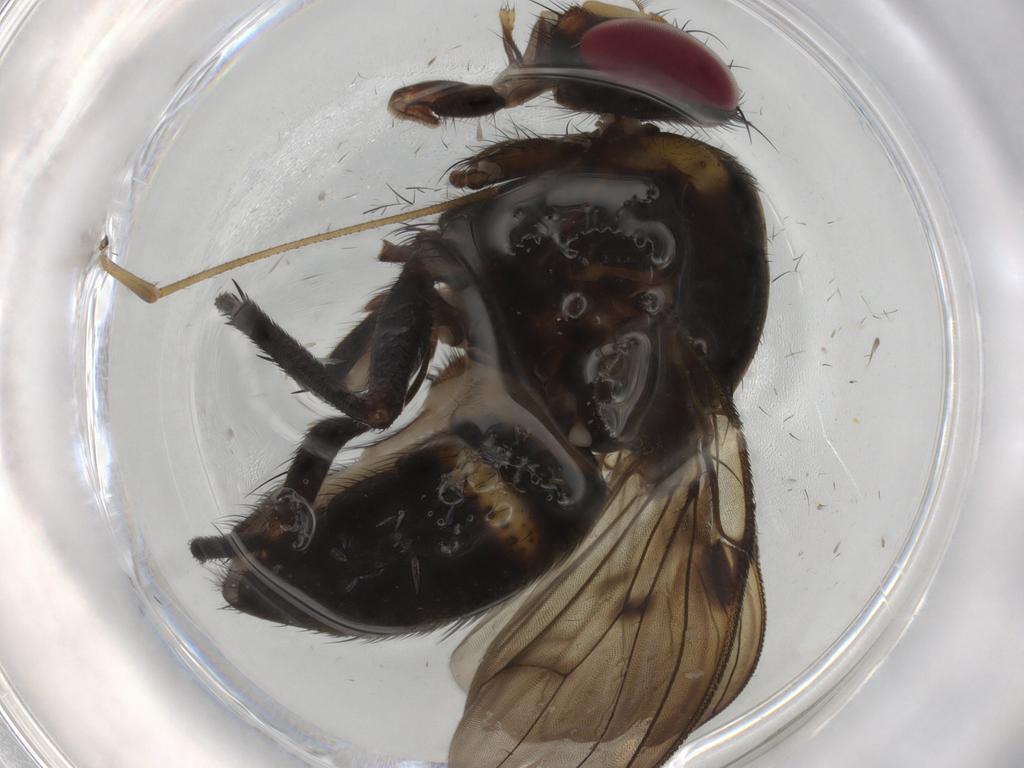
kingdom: Animalia
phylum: Arthropoda
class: Insecta
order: Diptera
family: Muscidae
